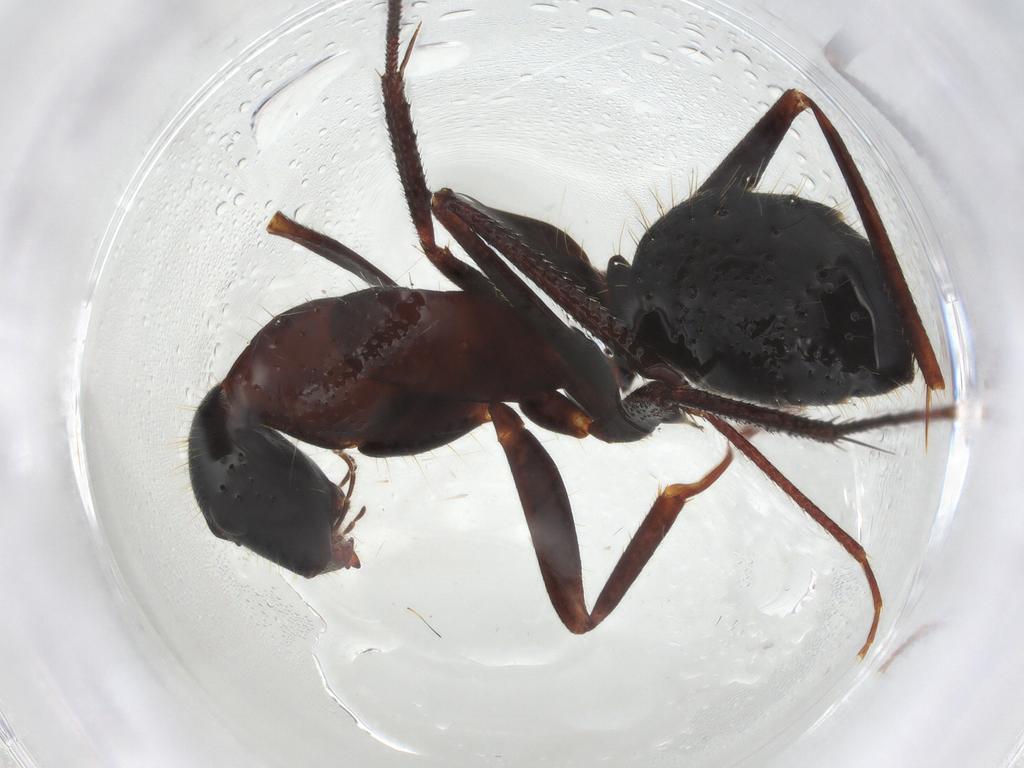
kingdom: Animalia
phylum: Arthropoda
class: Insecta
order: Hymenoptera
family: Formicidae
